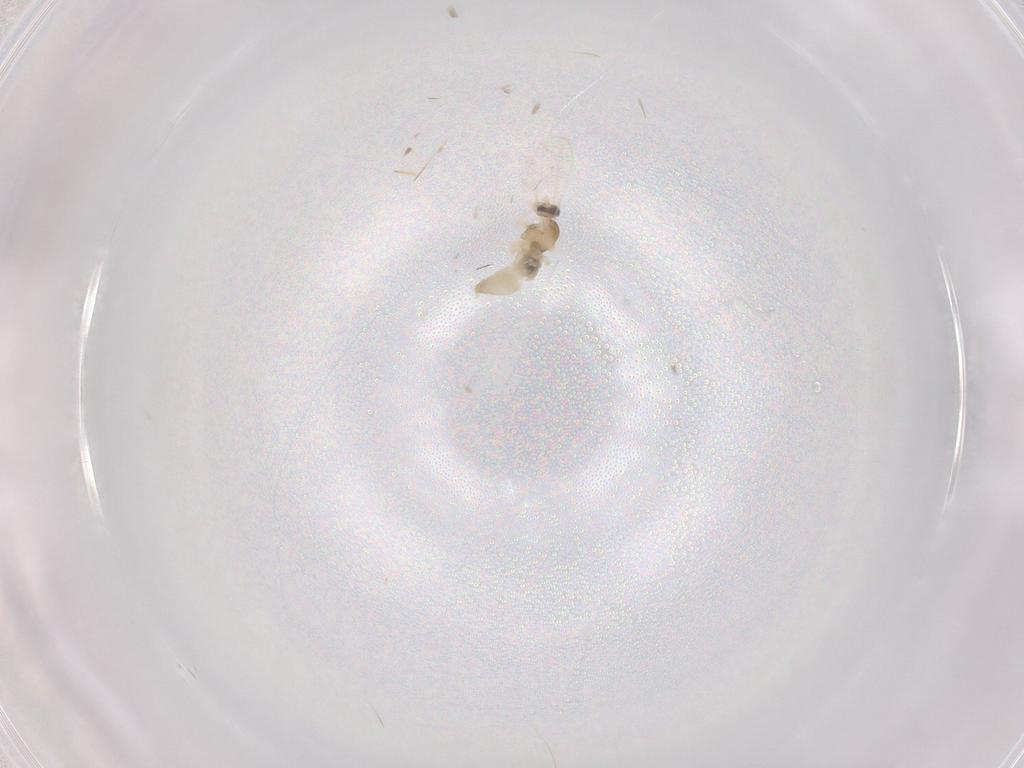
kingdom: Animalia
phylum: Arthropoda
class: Insecta
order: Diptera
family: Cecidomyiidae
